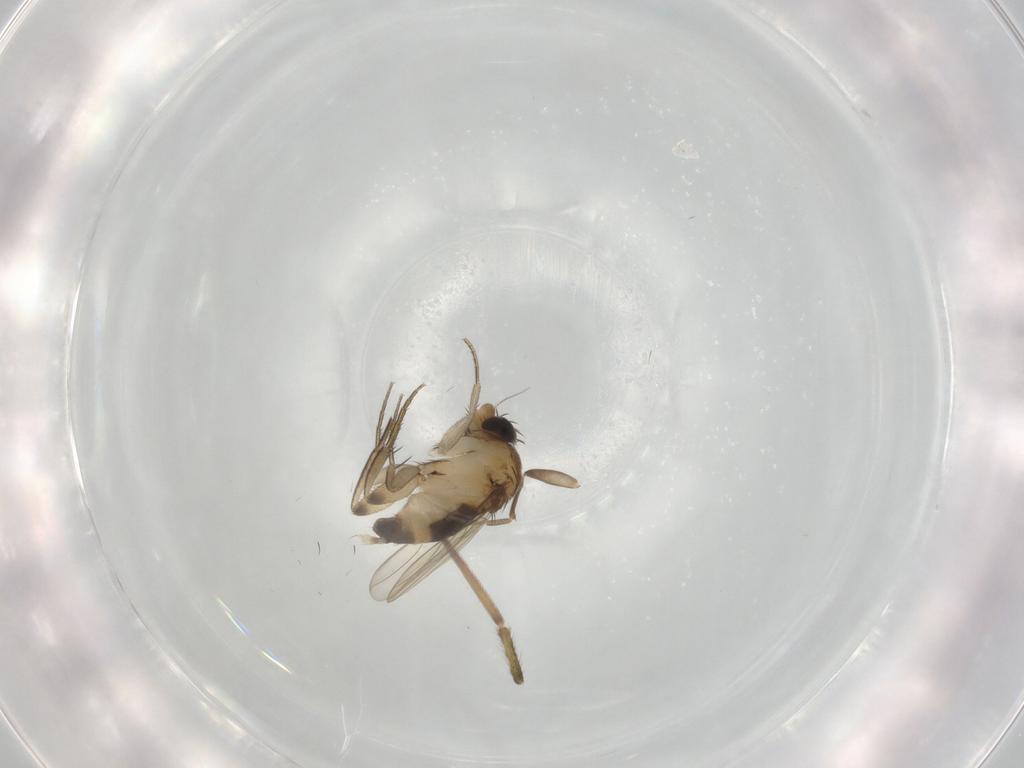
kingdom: Animalia
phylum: Arthropoda
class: Insecta
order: Diptera
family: Phoridae
